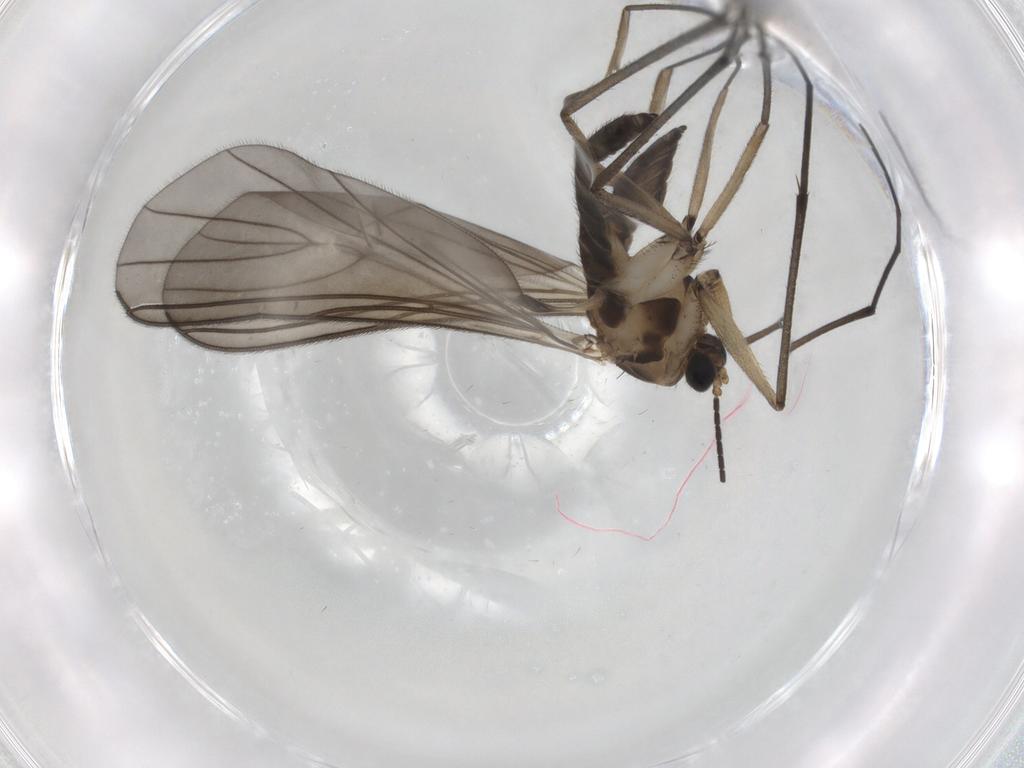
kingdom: Animalia
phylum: Arthropoda
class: Insecta
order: Diptera
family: Sciaridae
